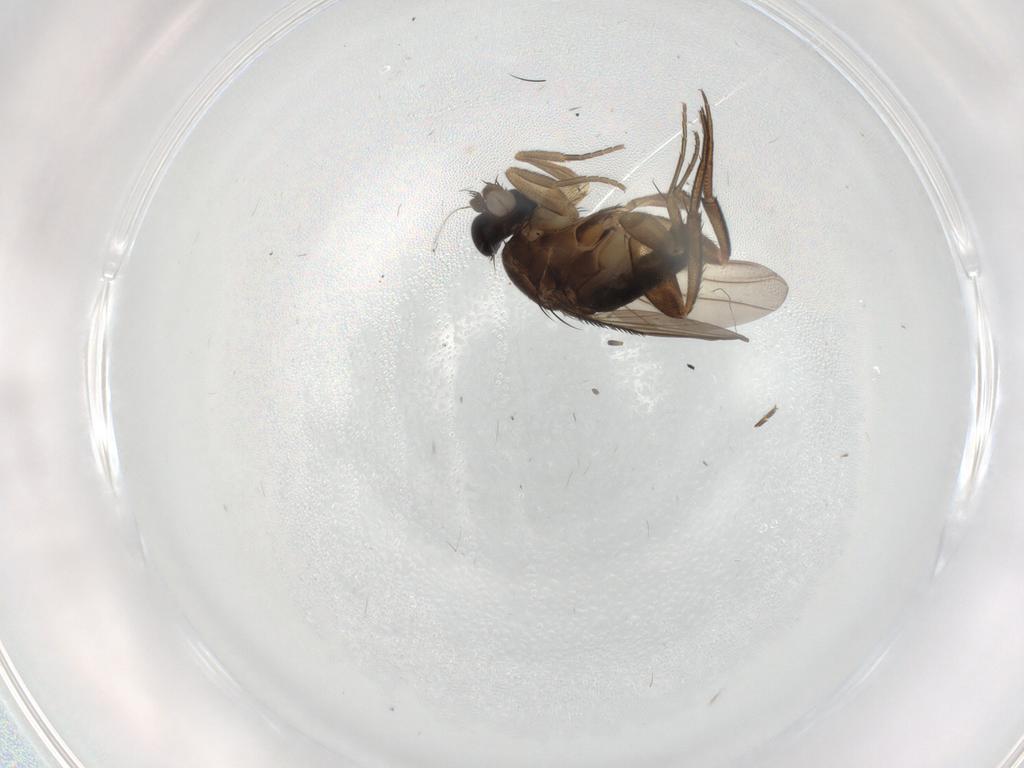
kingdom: Animalia
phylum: Arthropoda
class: Insecta
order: Diptera
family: Phoridae
